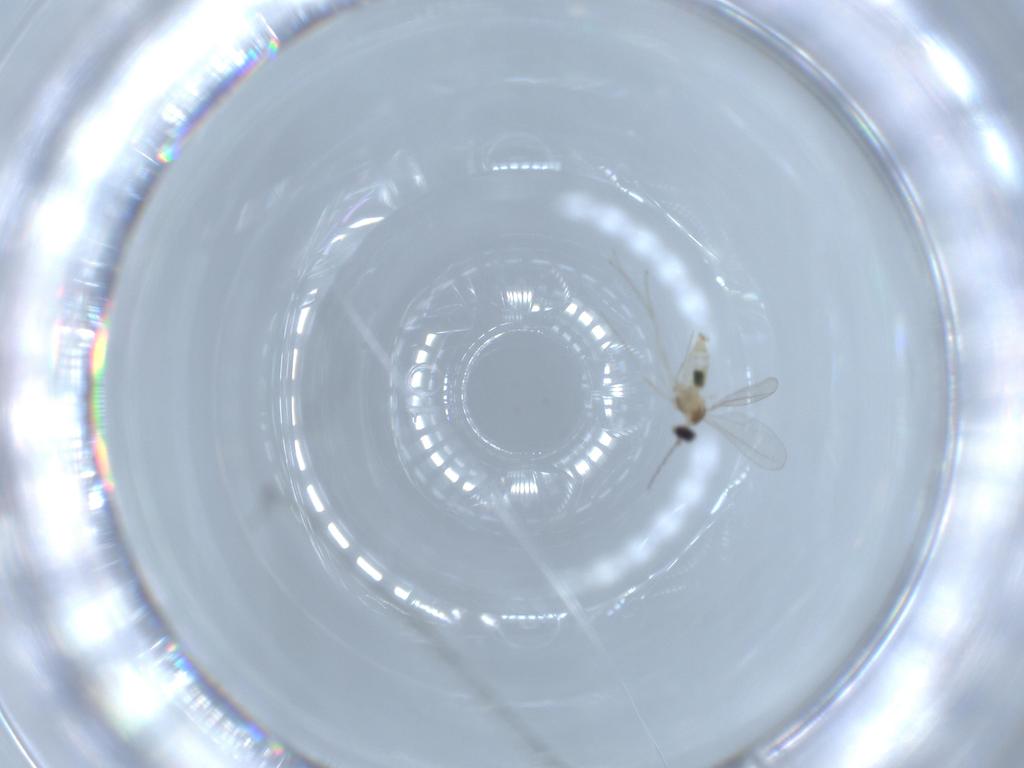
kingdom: Animalia
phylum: Arthropoda
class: Insecta
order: Diptera
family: Cecidomyiidae
